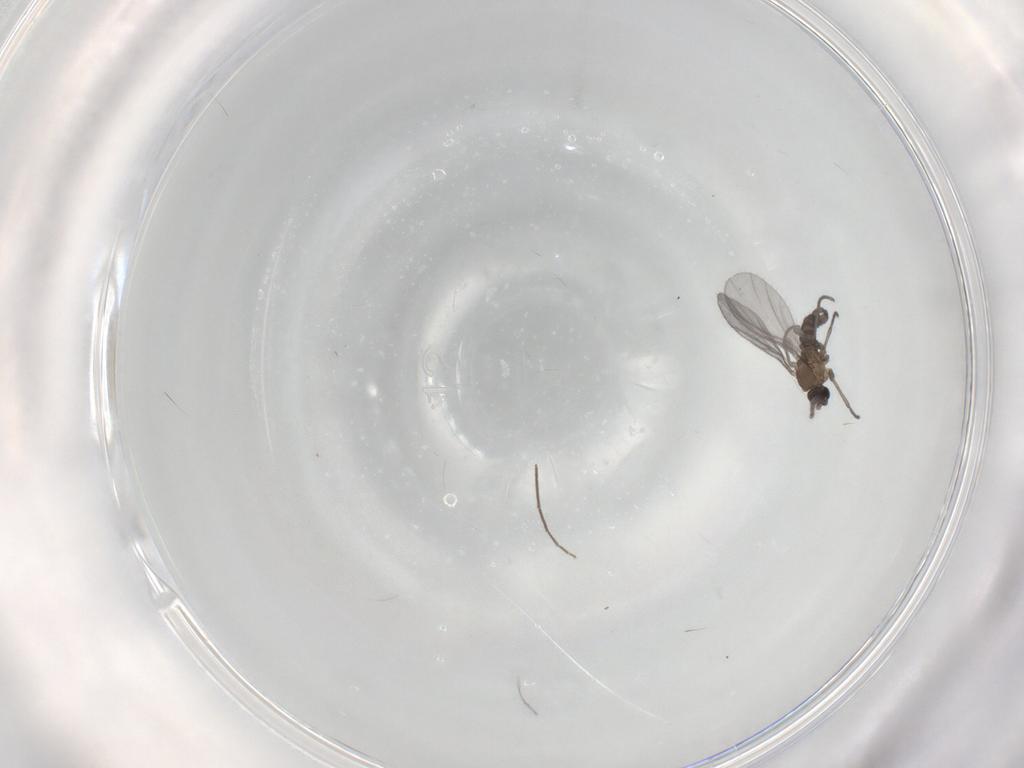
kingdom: Animalia
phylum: Arthropoda
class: Insecta
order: Diptera
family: Sciaridae
